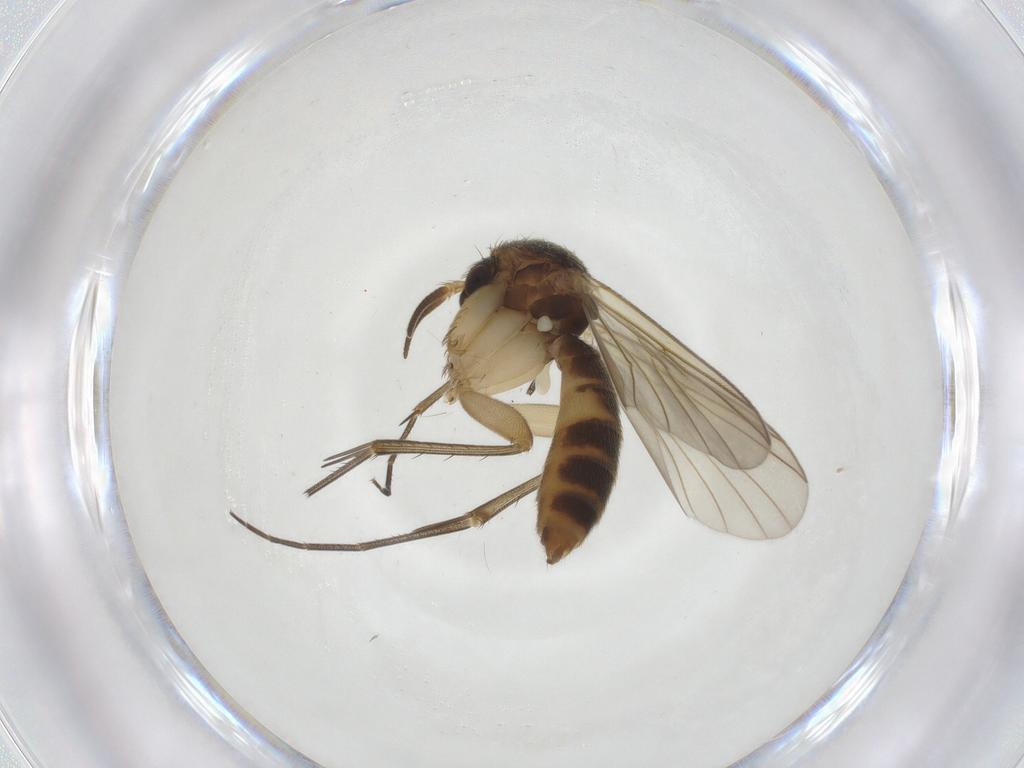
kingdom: Animalia
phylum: Arthropoda
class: Insecta
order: Diptera
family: Mycetophilidae
